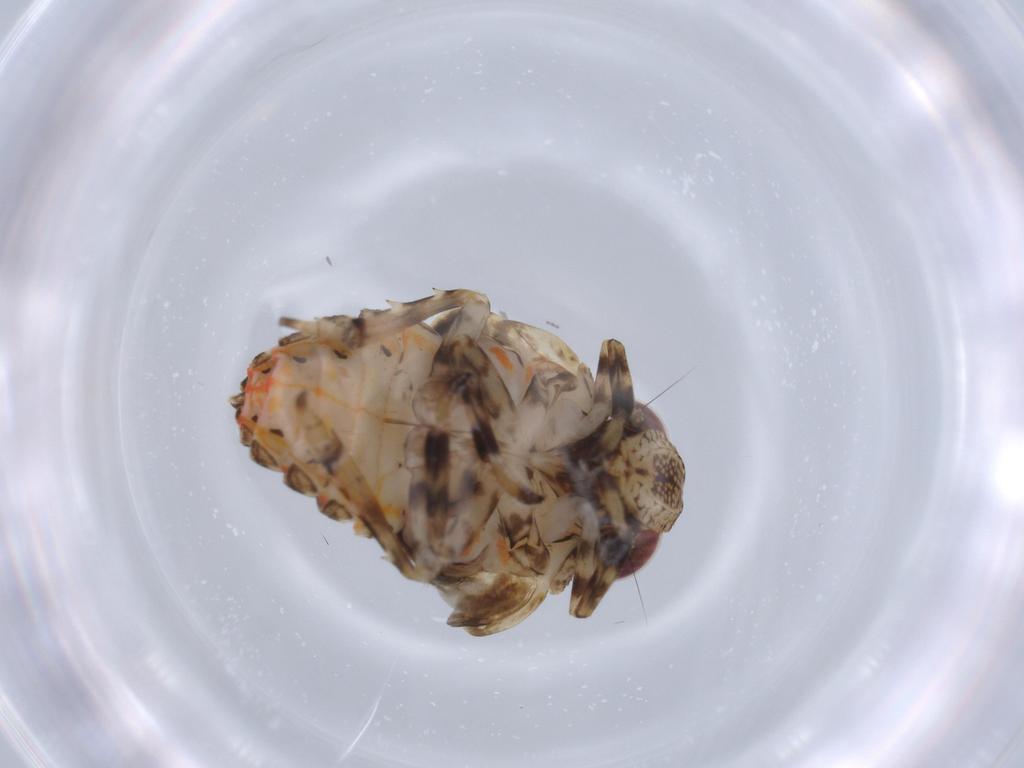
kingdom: Animalia
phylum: Arthropoda
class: Insecta
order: Hemiptera
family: Issidae
